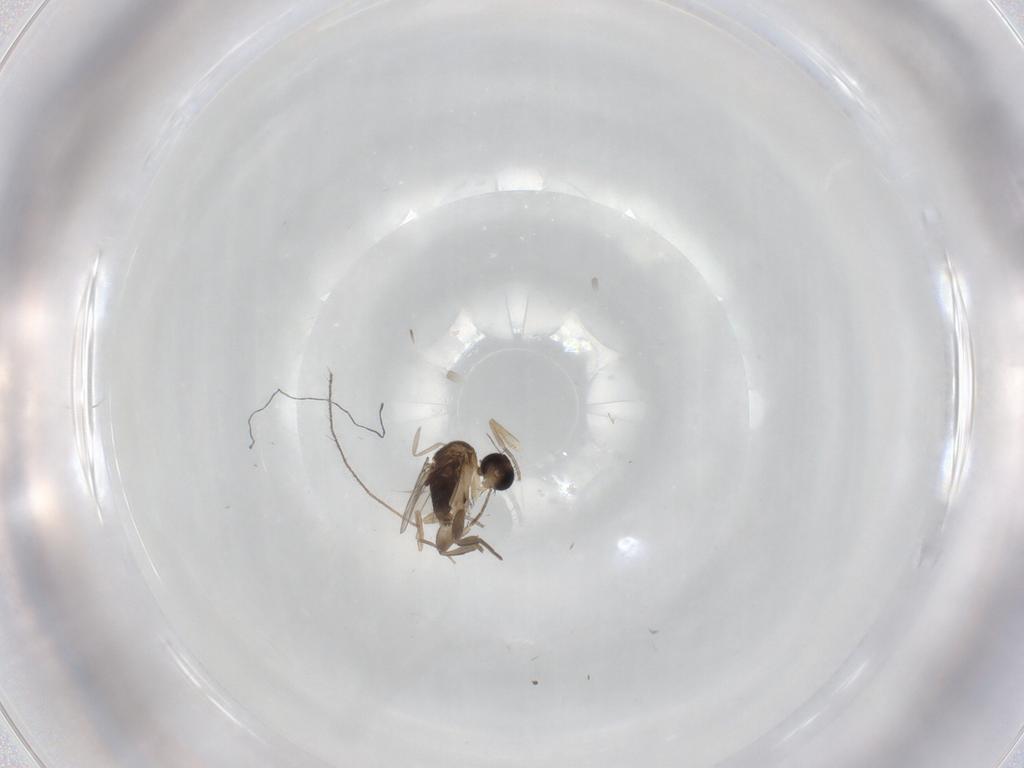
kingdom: Animalia
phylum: Arthropoda
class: Insecta
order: Diptera
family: Phoridae
